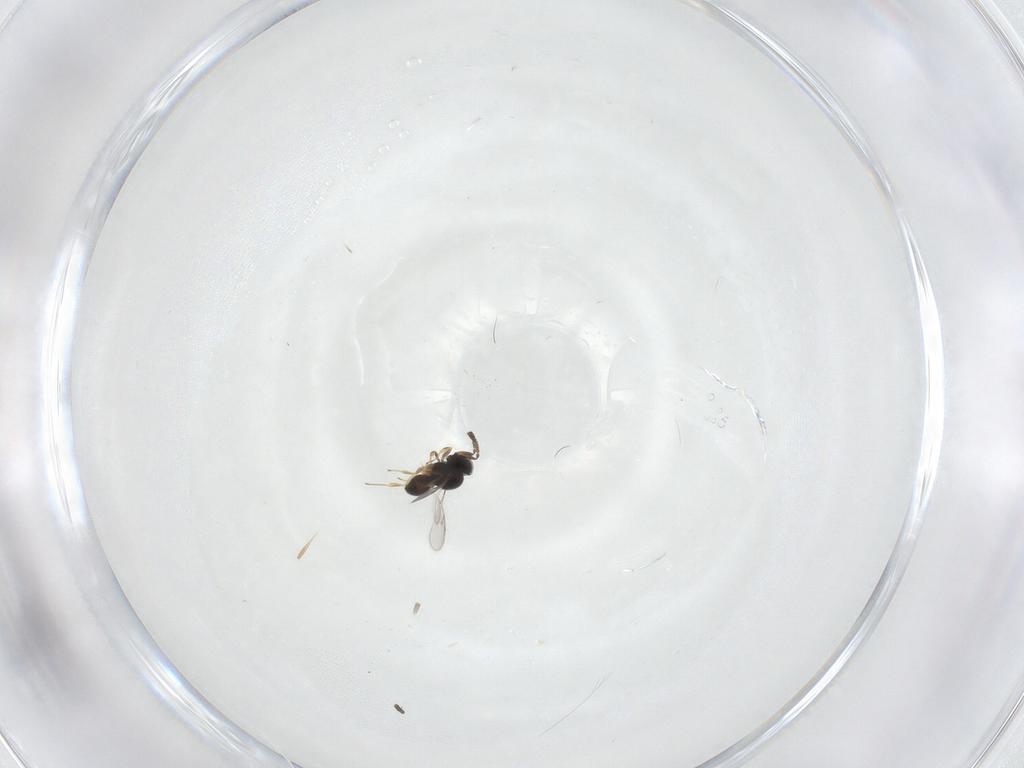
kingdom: Animalia
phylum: Arthropoda
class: Insecta
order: Hymenoptera
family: Scelionidae
